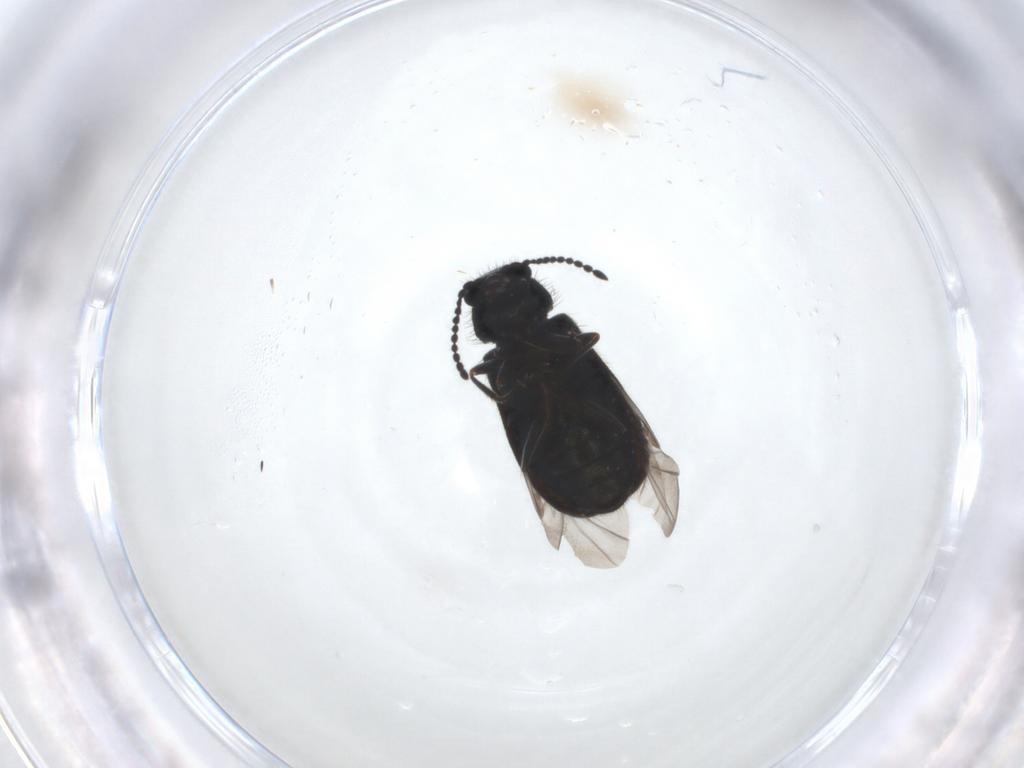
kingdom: Animalia
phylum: Arthropoda
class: Insecta
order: Coleoptera
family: Melyridae
